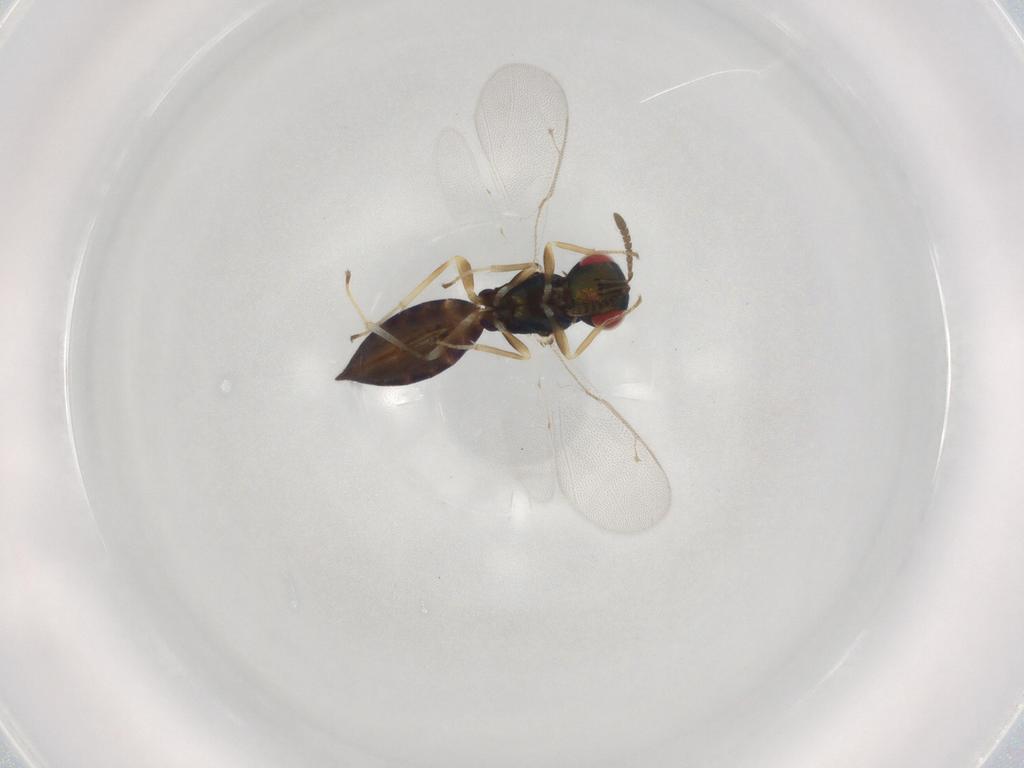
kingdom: Animalia
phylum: Arthropoda
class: Insecta
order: Hymenoptera
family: Pteromalidae
